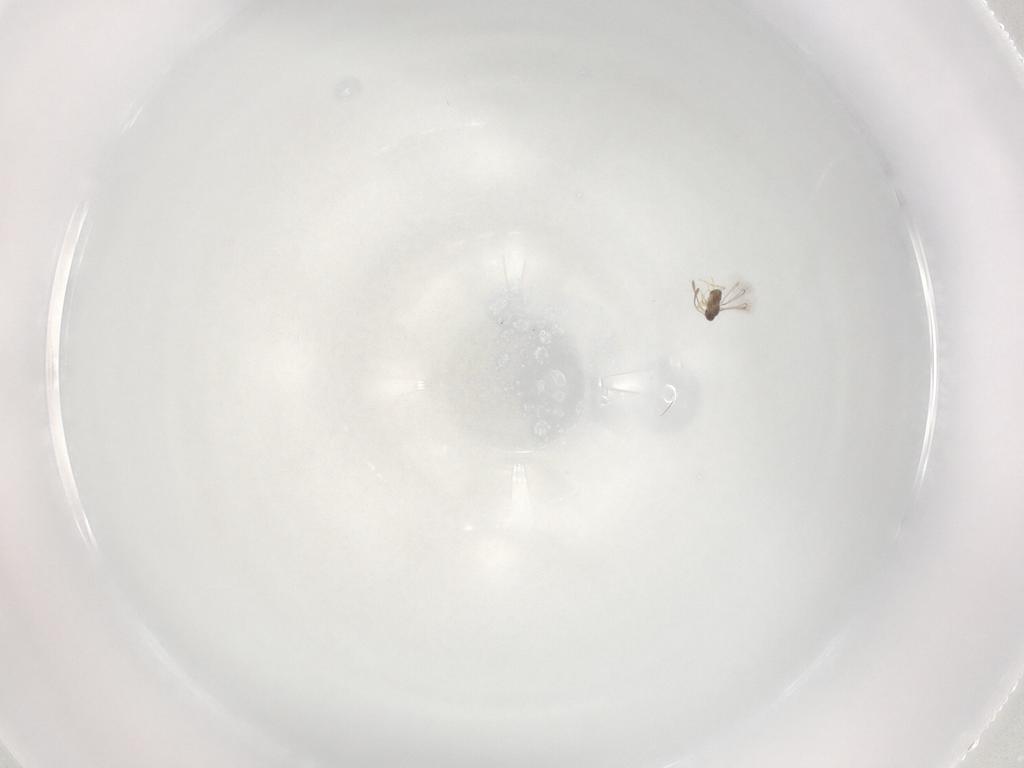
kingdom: Animalia
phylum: Arthropoda
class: Insecta
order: Hymenoptera
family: Mymaridae
